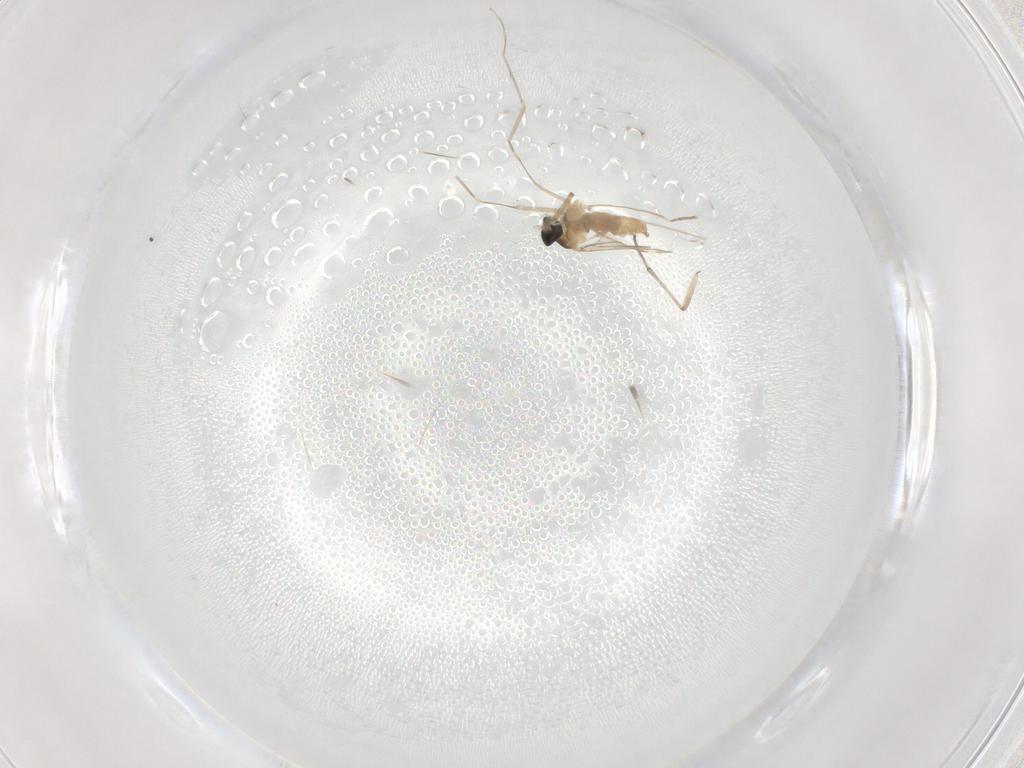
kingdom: Animalia
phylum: Arthropoda
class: Insecta
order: Diptera
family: Cecidomyiidae
